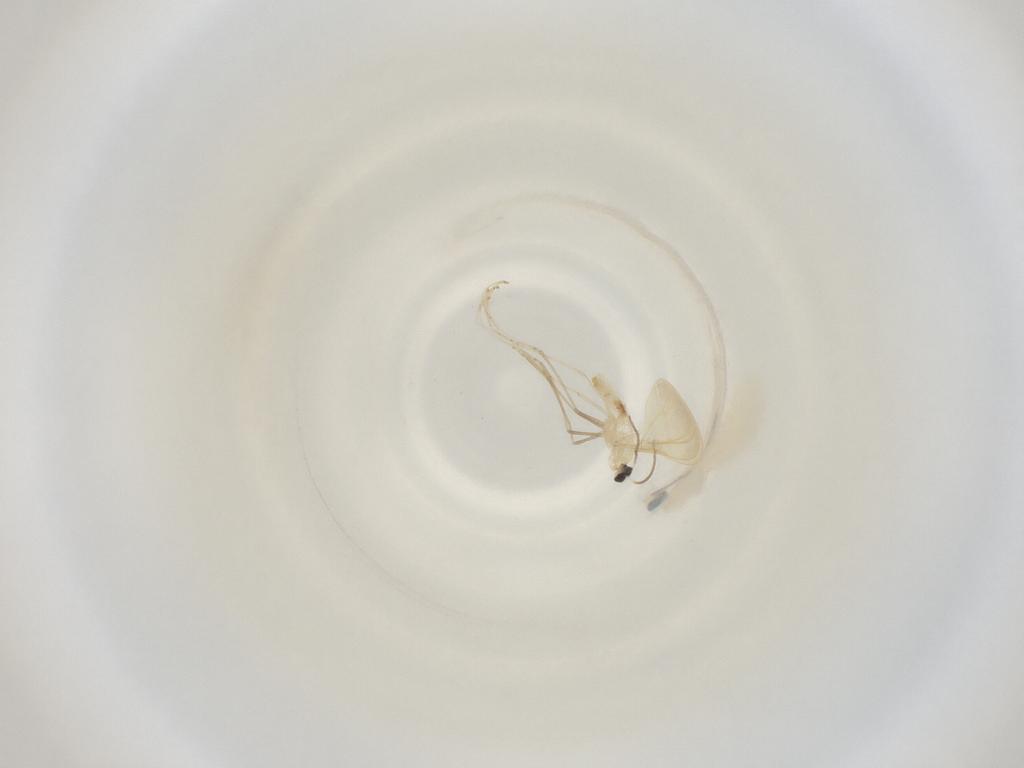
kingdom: Animalia
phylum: Arthropoda
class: Insecta
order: Diptera
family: Cecidomyiidae
